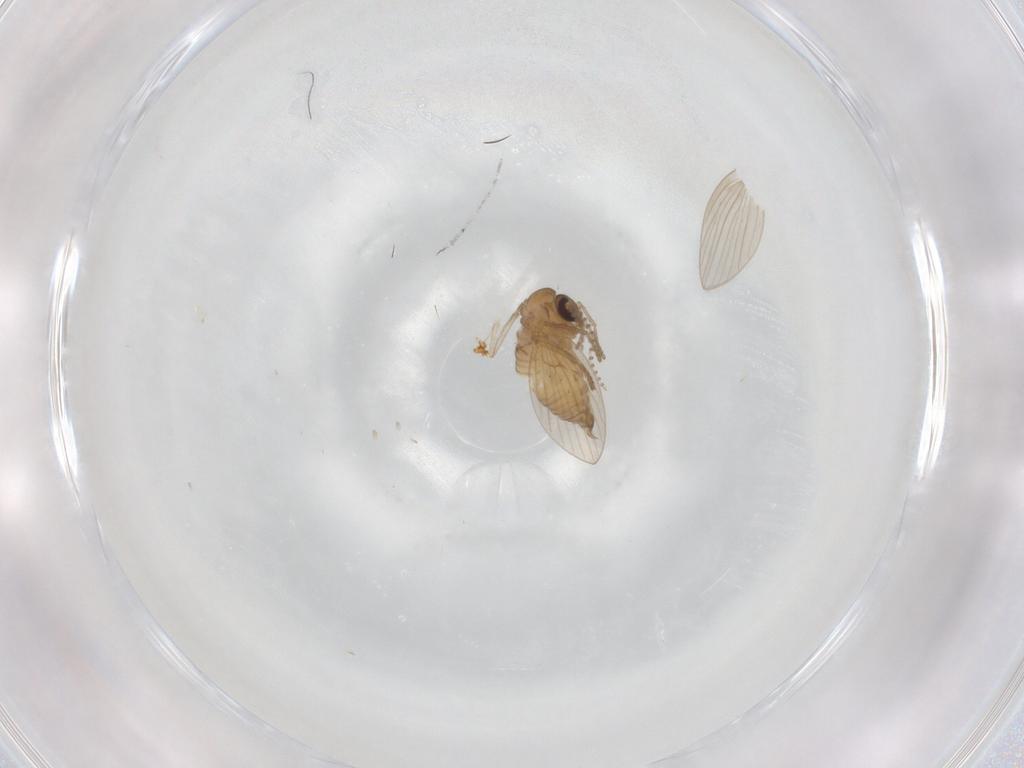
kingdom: Animalia
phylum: Arthropoda
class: Insecta
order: Diptera
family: Psychodidae
